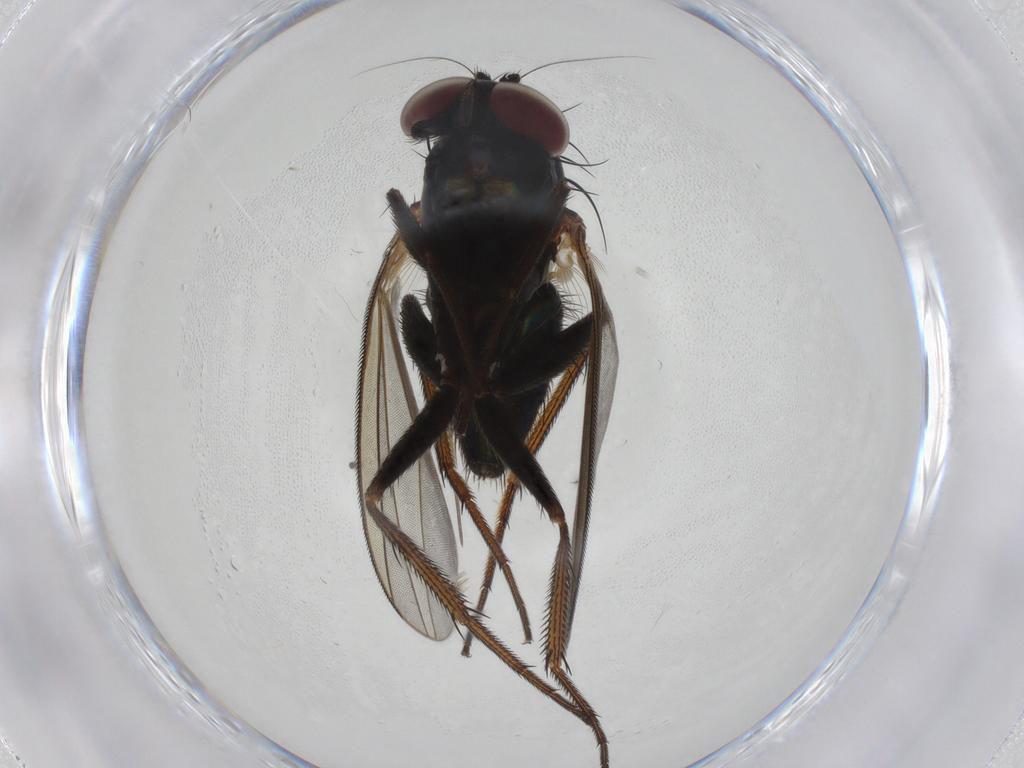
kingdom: Animalia
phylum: Arthropoda
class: Insecta
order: Diptera
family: Dolichopodidae
